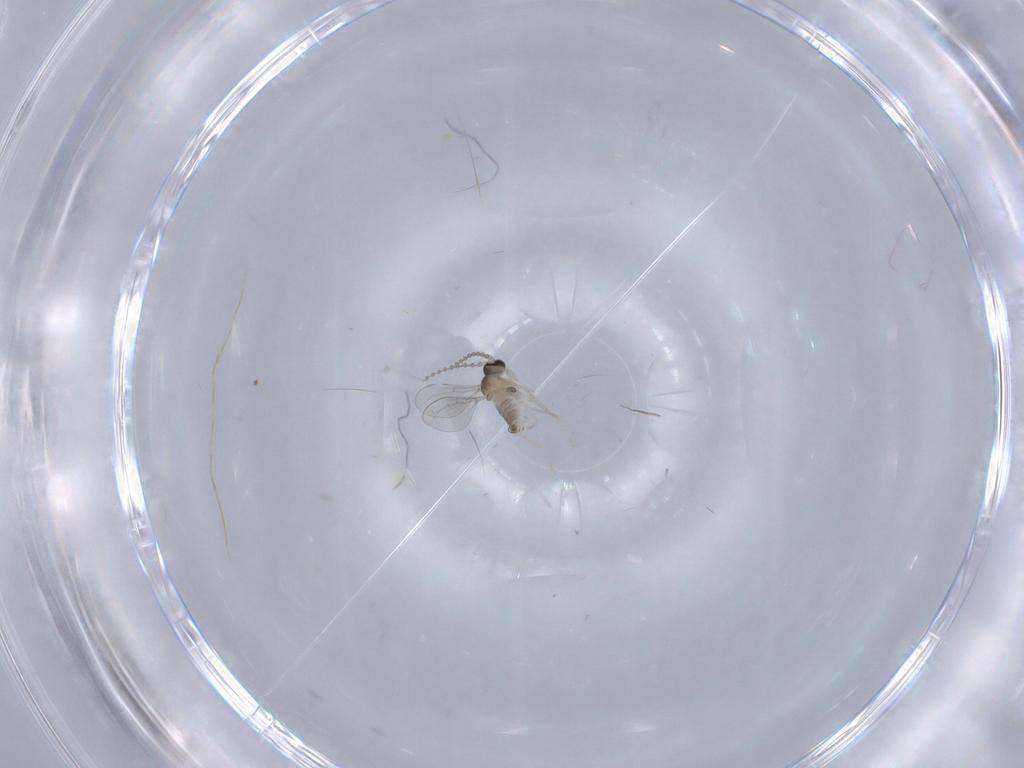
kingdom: Animalia
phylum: Arthropoda
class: Insecta
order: Diptera
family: Cecidomyiidae
